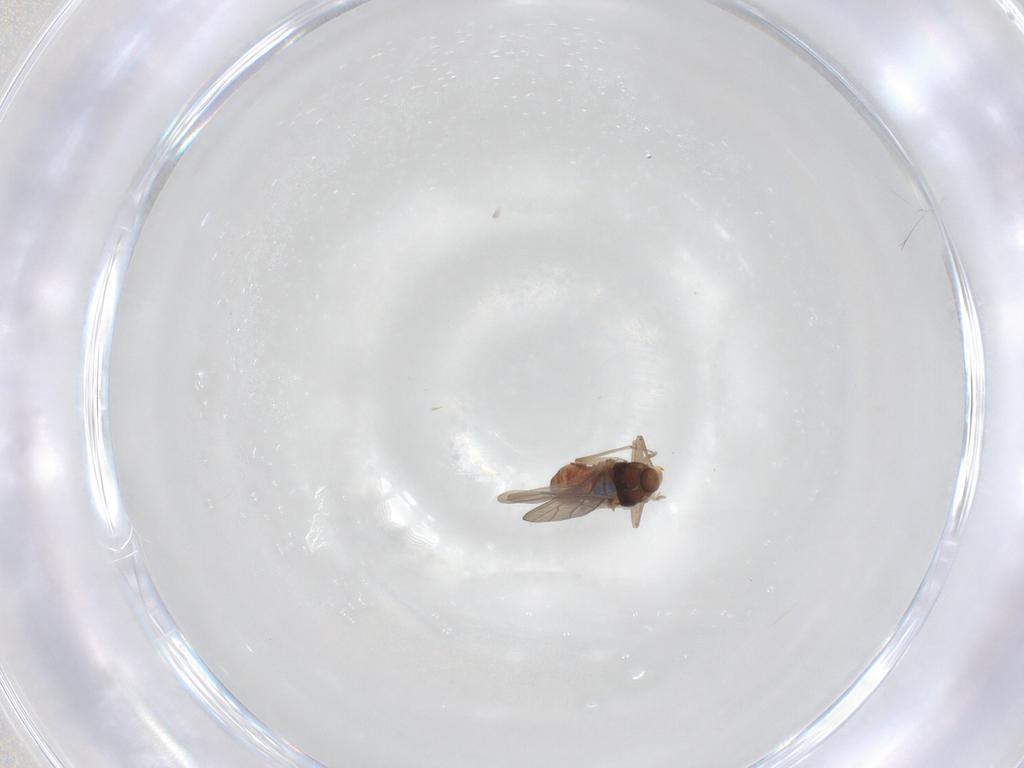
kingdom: Animalia
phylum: Arthropoda
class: Insecta
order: Psocodea
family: Lepidopsocidae
